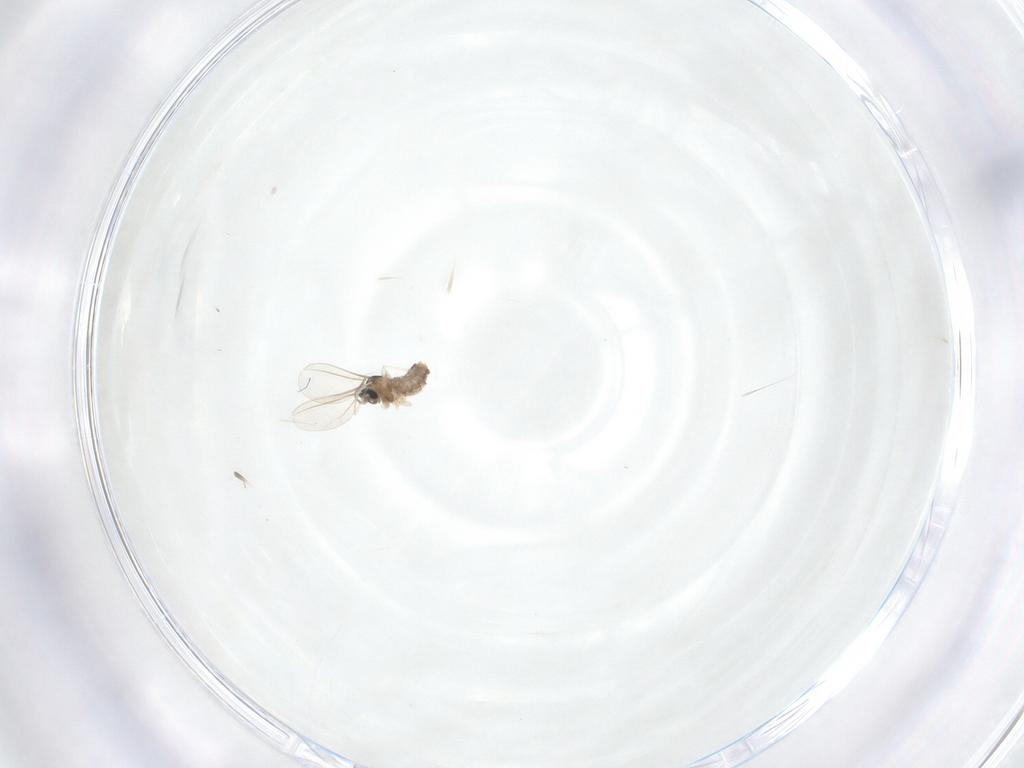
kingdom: Animalia
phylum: Arthropoda
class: Insecta
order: Diptera
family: Cecidomyiidae
